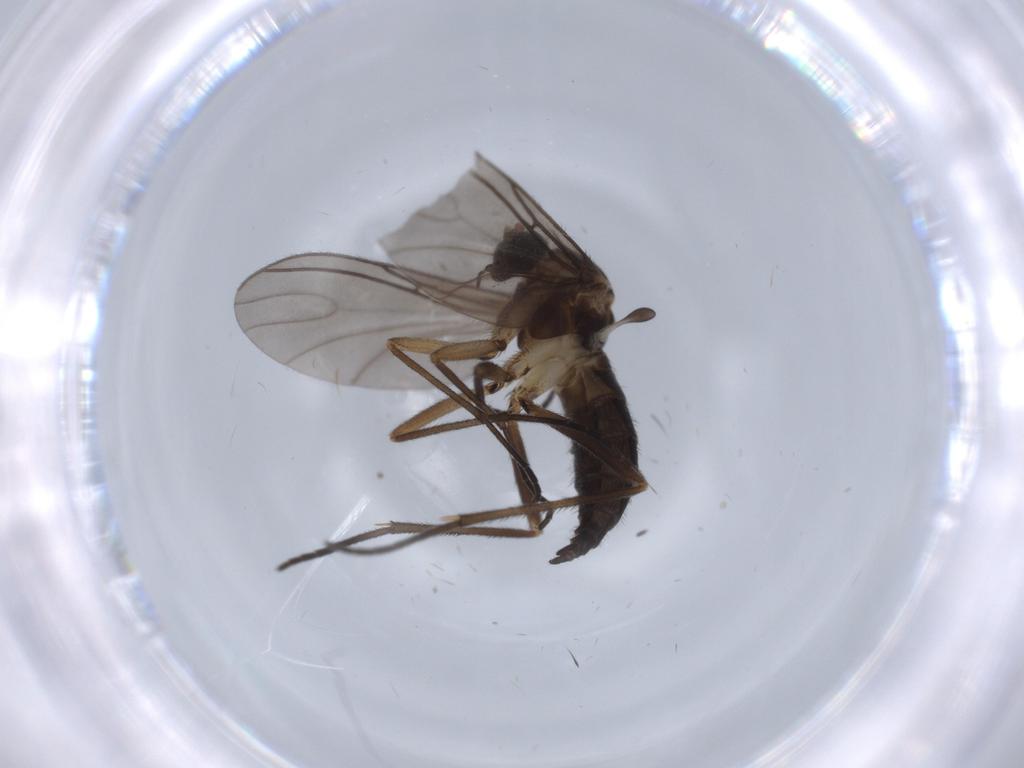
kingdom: Animalia
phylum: Arthropoda
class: Insecta
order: Diptera
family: Sciaridae
